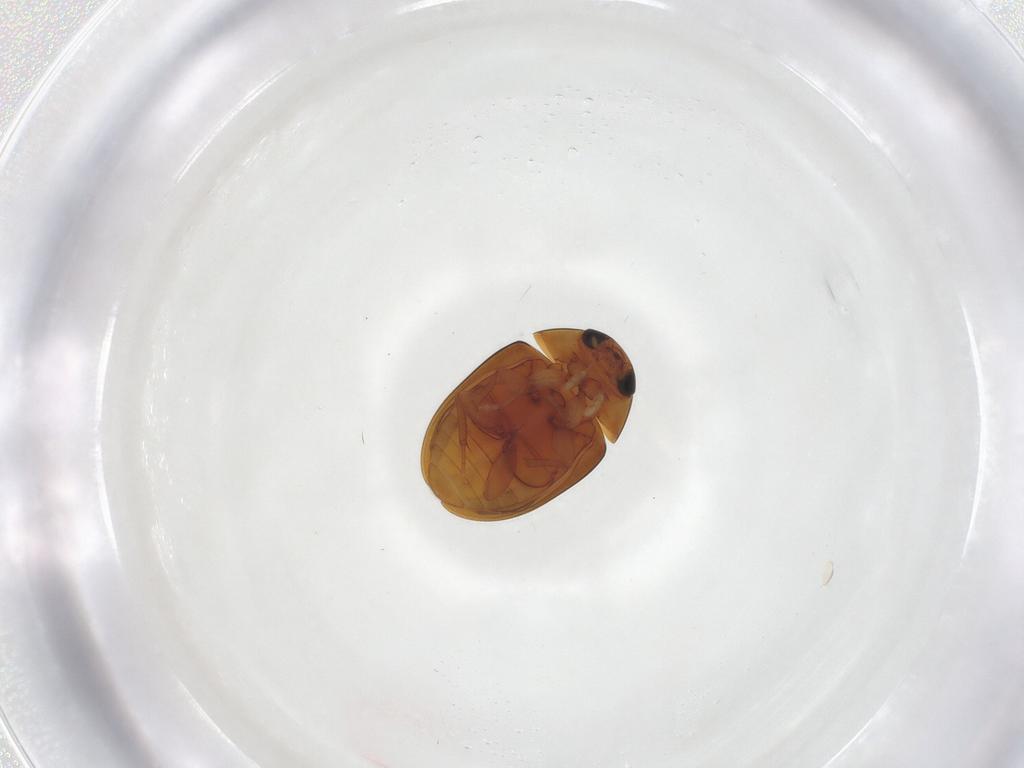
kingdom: Animalia
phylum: Arthropoda
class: Insecta
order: Coleoptera
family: Phalacridae
